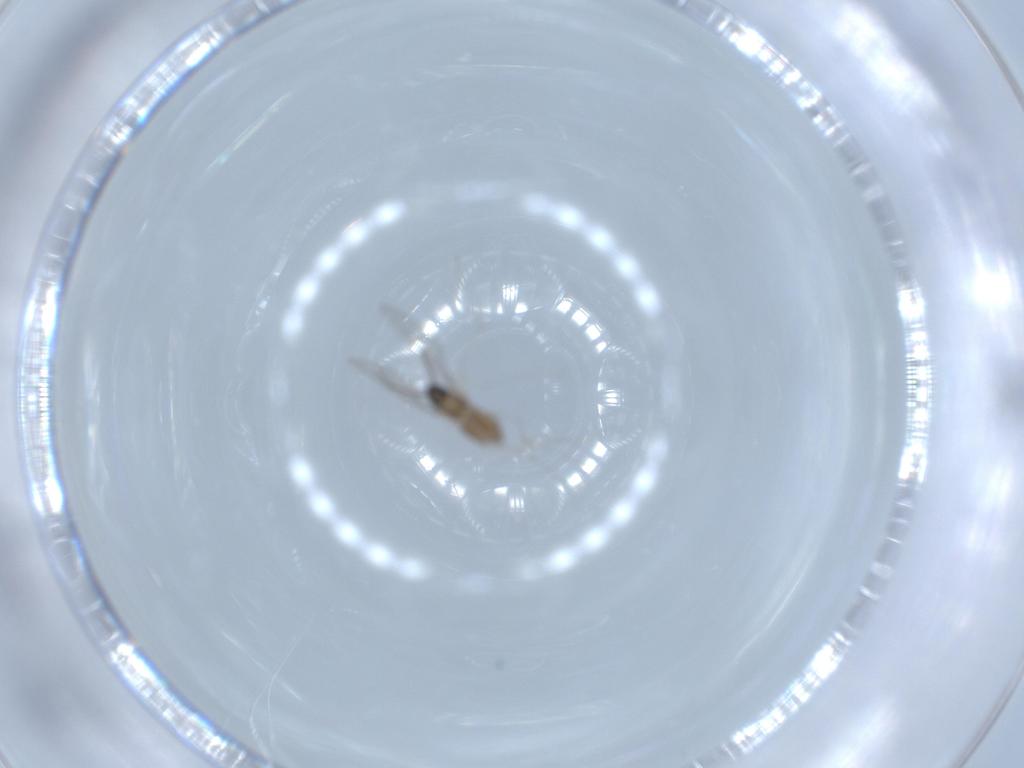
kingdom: Animalia
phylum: Arthropoda
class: Insecta
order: Diptera
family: Cecidomyiidae
